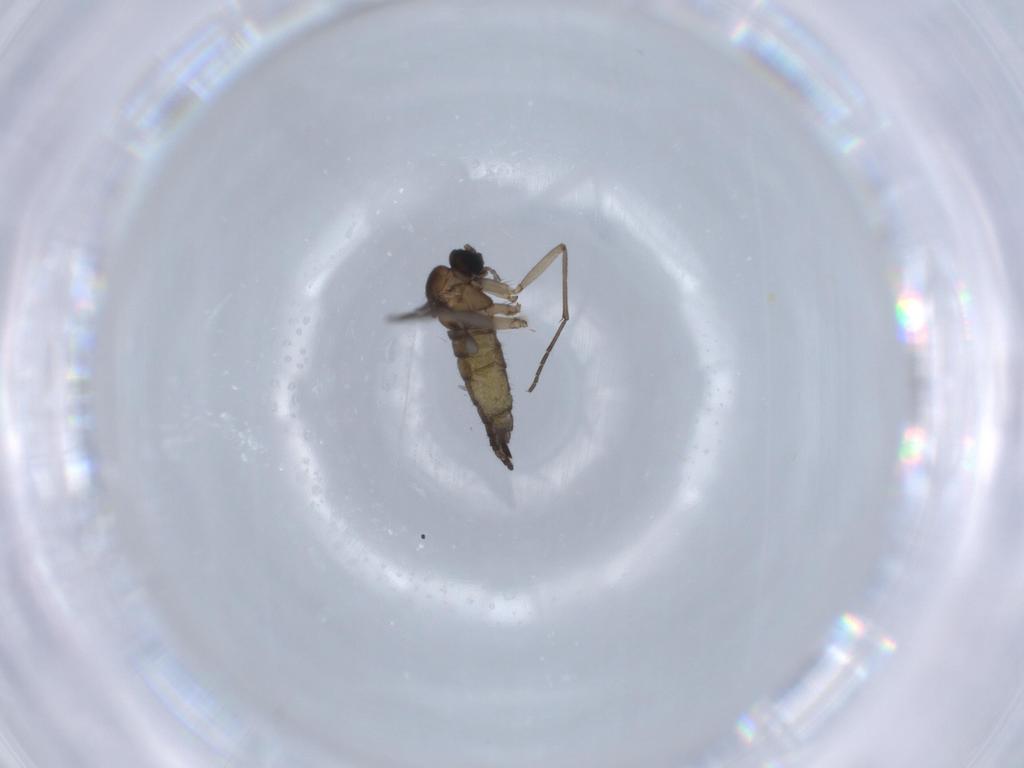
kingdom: Animalia
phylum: Arthropoda
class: Insecta
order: Diptera
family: Sciaridae
